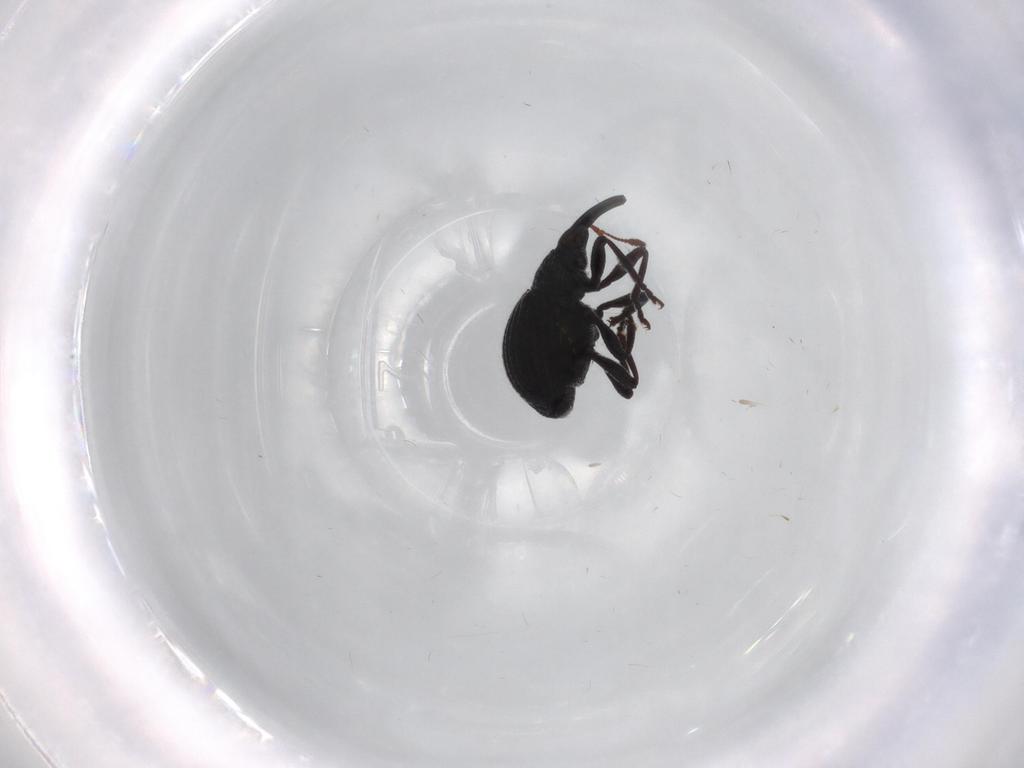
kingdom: Animalia
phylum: Arthropoda
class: Insecta
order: Coleoptera
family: Brentidae
